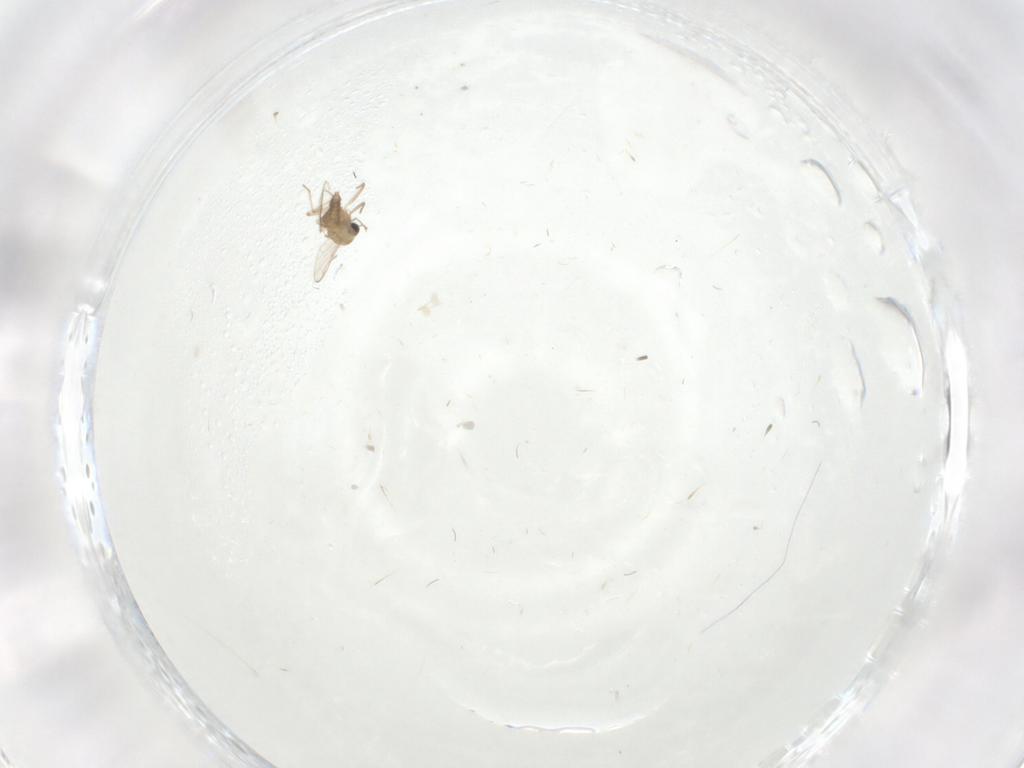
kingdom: Animalia
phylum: Arthropoda
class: Insecta
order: Diptera
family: Chironomidae
